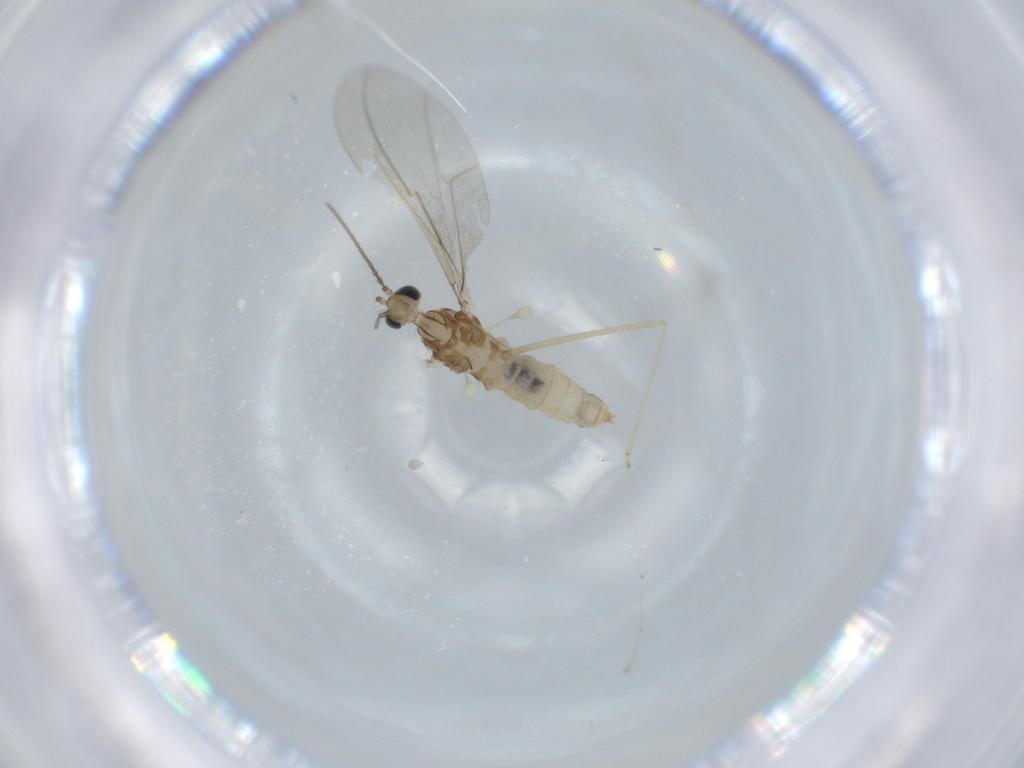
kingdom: Animalia
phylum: Arthropoda
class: Insecta
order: Diptera
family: Cecidomyiidae
